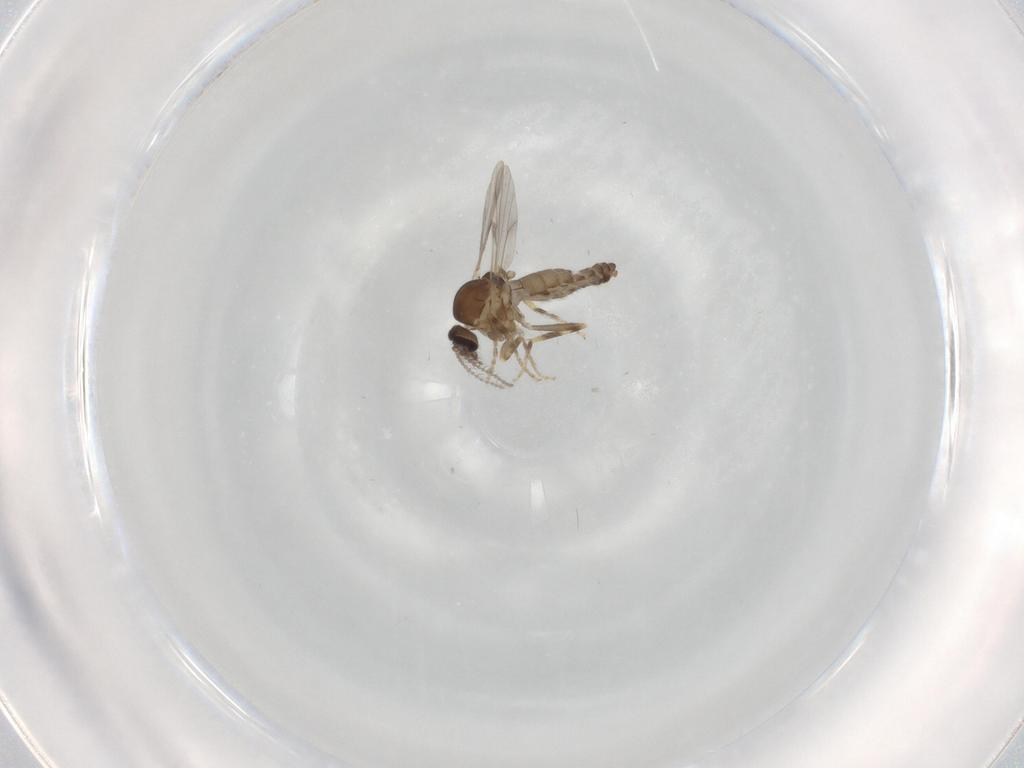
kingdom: Animalia
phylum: Arthropoda
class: Insecta
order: Diptera
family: Ceratopogonidae
